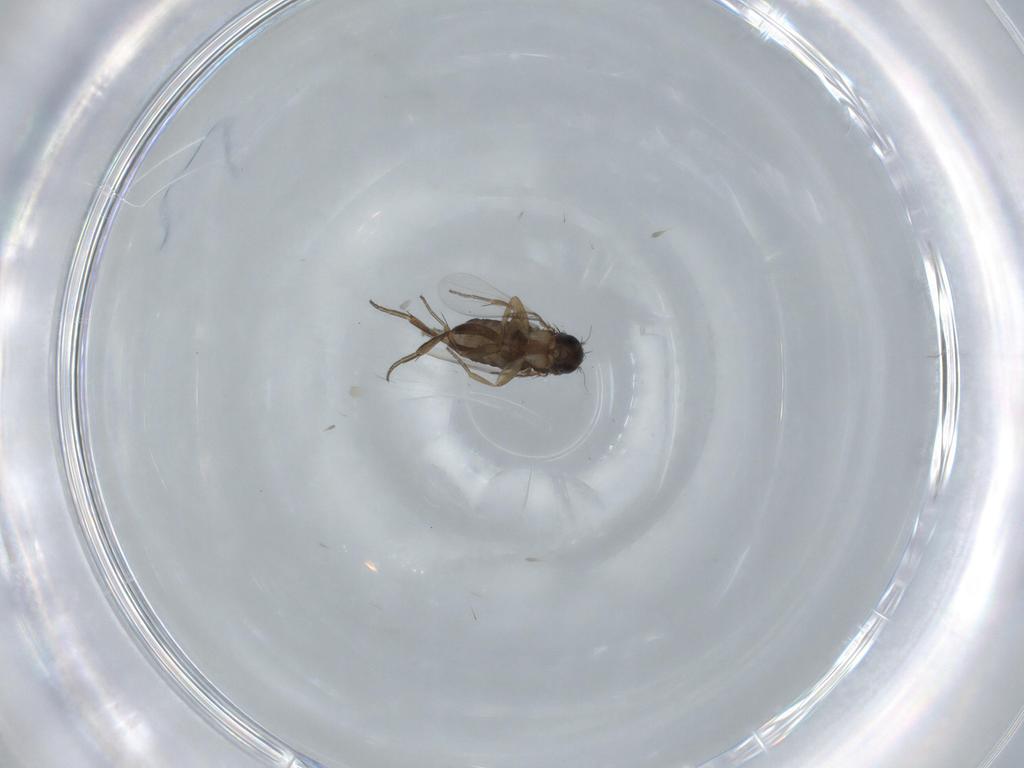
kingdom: Animalia
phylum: Arthropoda
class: Insecta
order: Diptera
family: Phoridae
